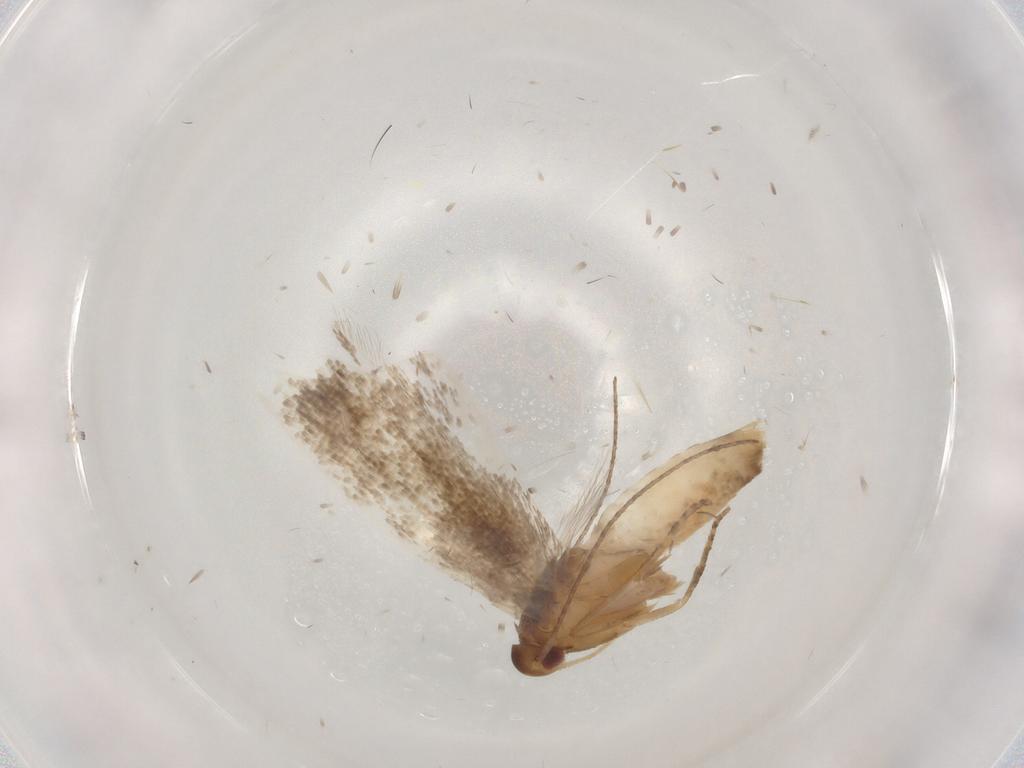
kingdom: Animalia
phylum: Arthropoda
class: Insecta
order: Lepidoptera
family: Gelechiidae
